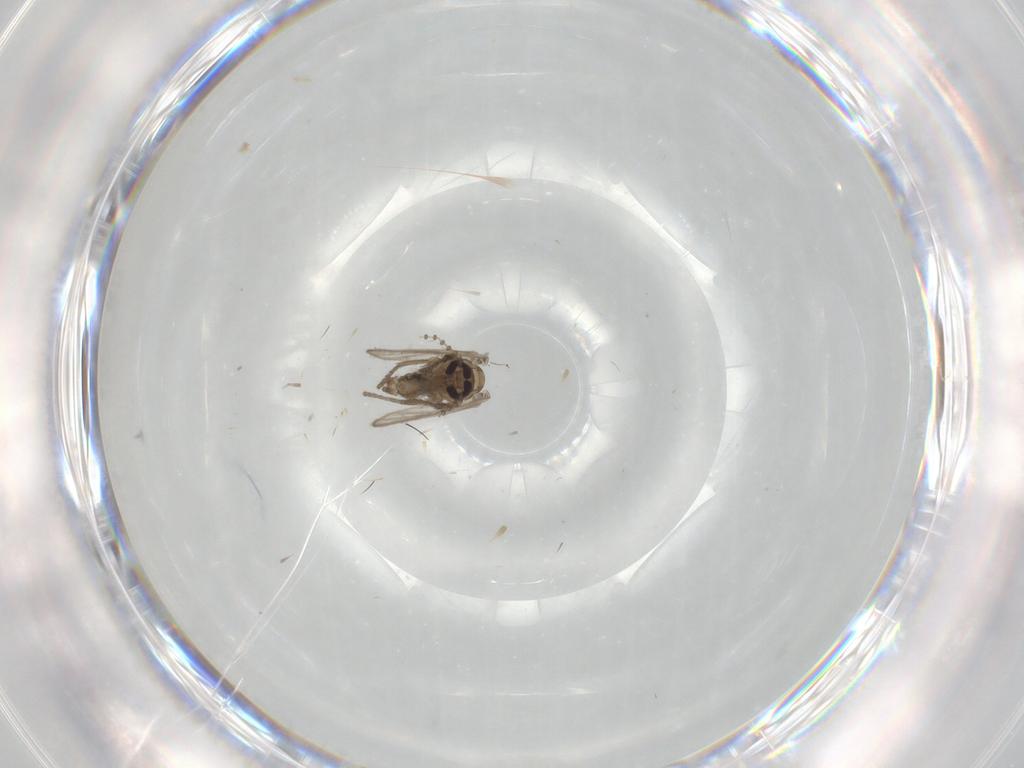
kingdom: Animalia
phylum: Arthropoda
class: Insecta
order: Diptera
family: Psychodidae
